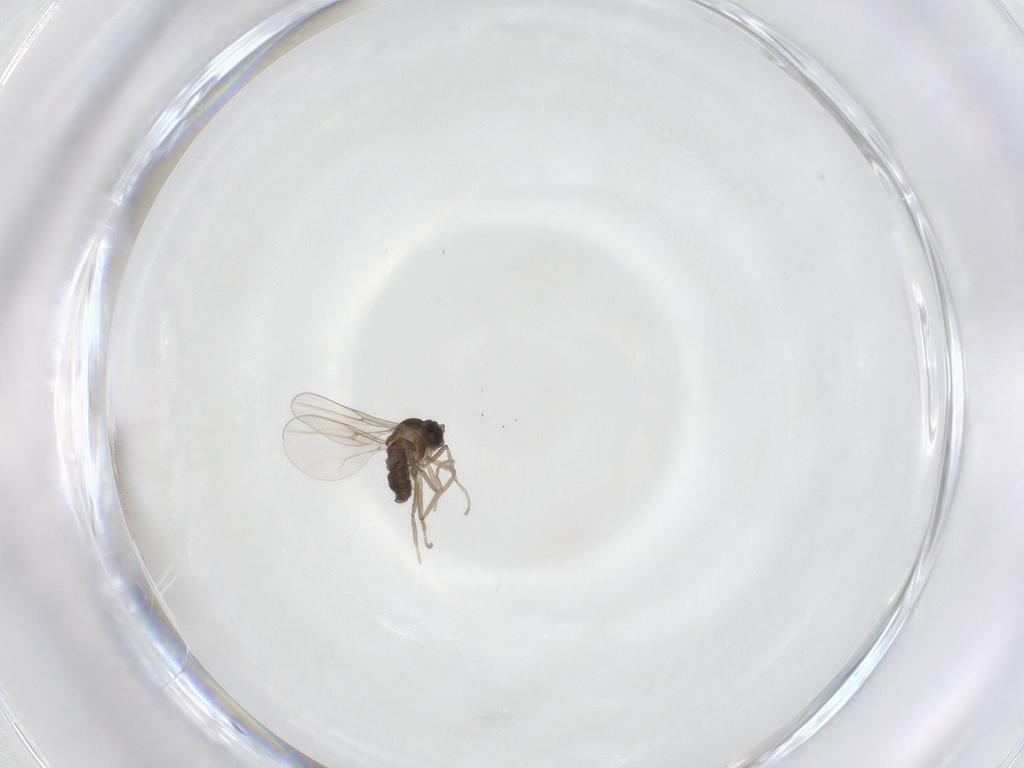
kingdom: Animalia
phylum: Arthropoda
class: Insecta
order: Diptera
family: Cecidomyiidae
